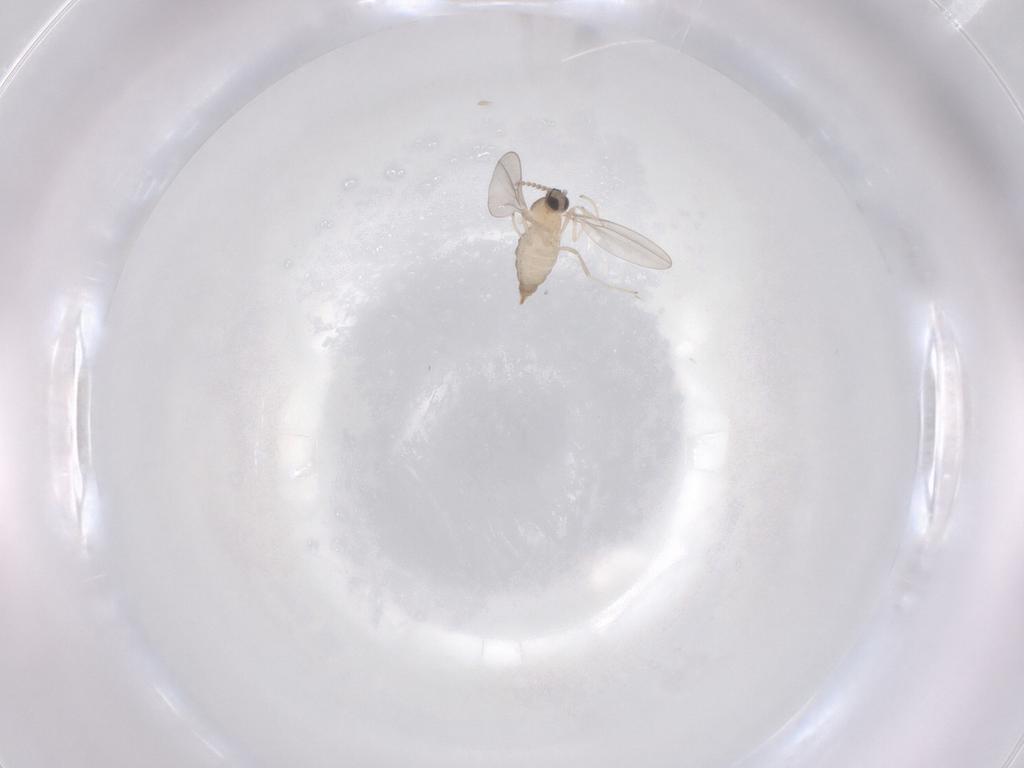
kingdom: Animalia
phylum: Arthropoda
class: Insecta
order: Diptera
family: Cecidomyiidae
